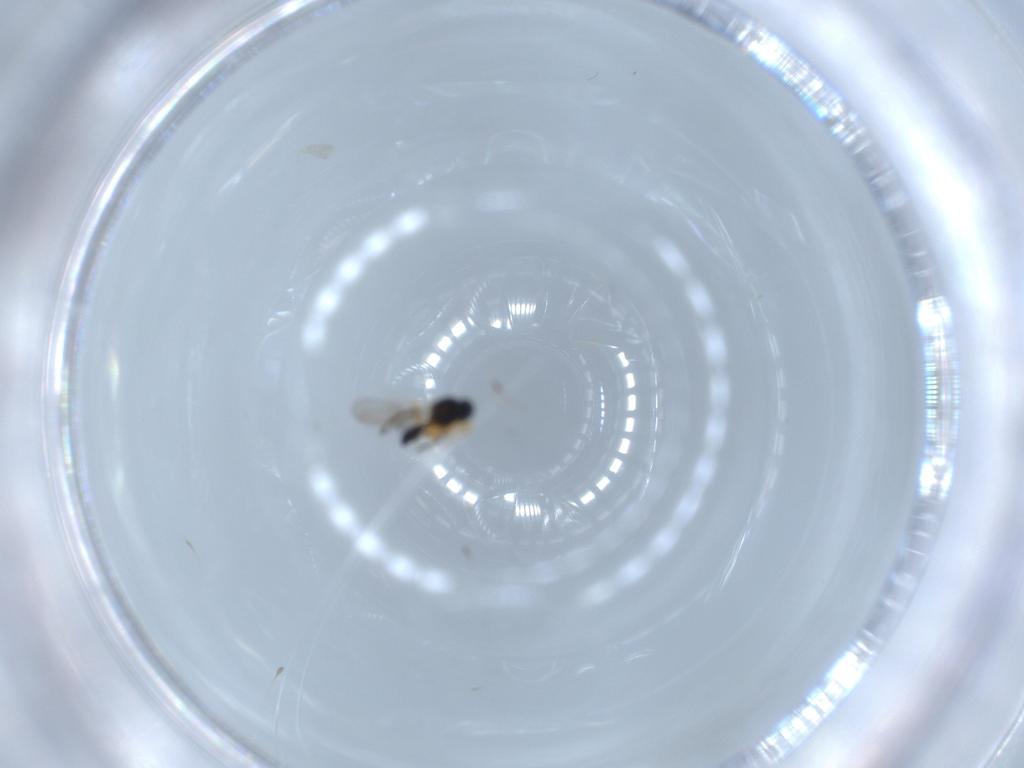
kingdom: Animalia
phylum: Arthropoda
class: Insecta
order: Hymenoptera
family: Platygastridae
